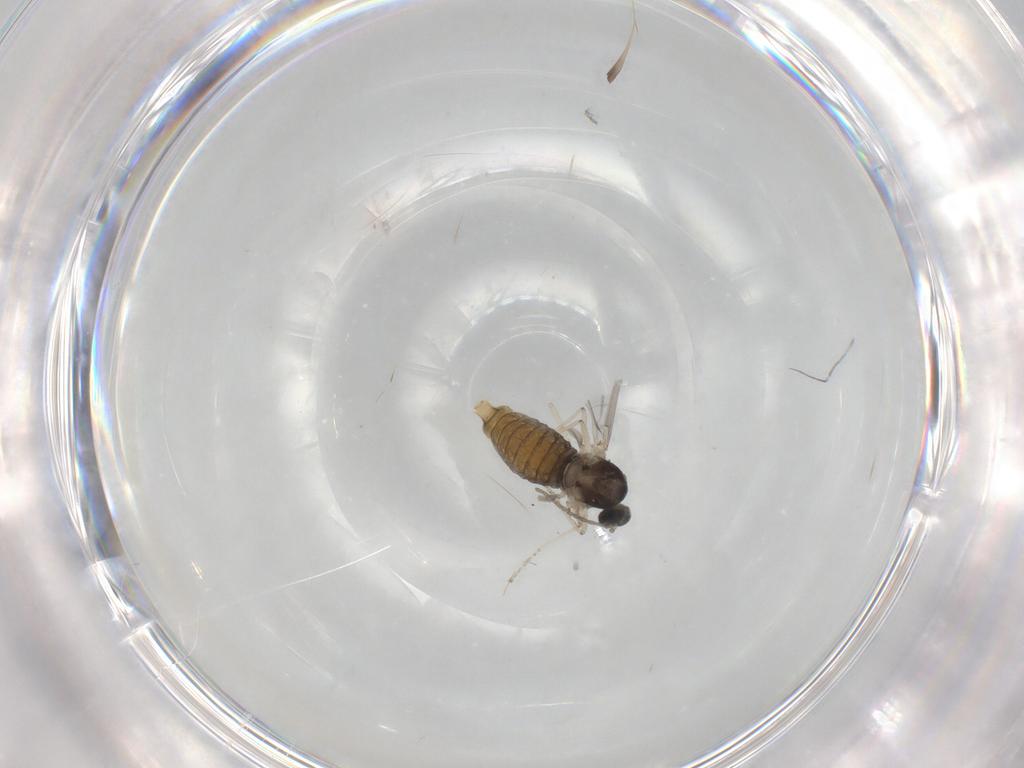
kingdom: Animalia
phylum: Arthropoda
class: Insecta
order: Diptera
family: Cecidomyiidae
